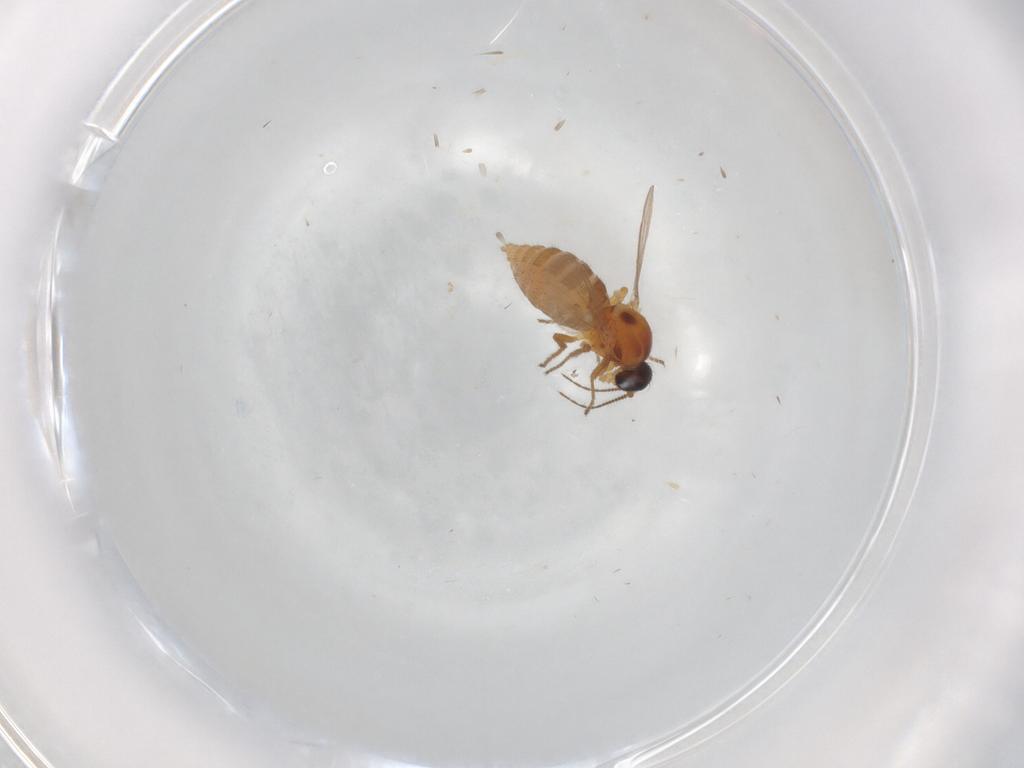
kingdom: Animalia
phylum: Arthropoda
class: Insecta
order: Diptera
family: Ceratopogonidae
